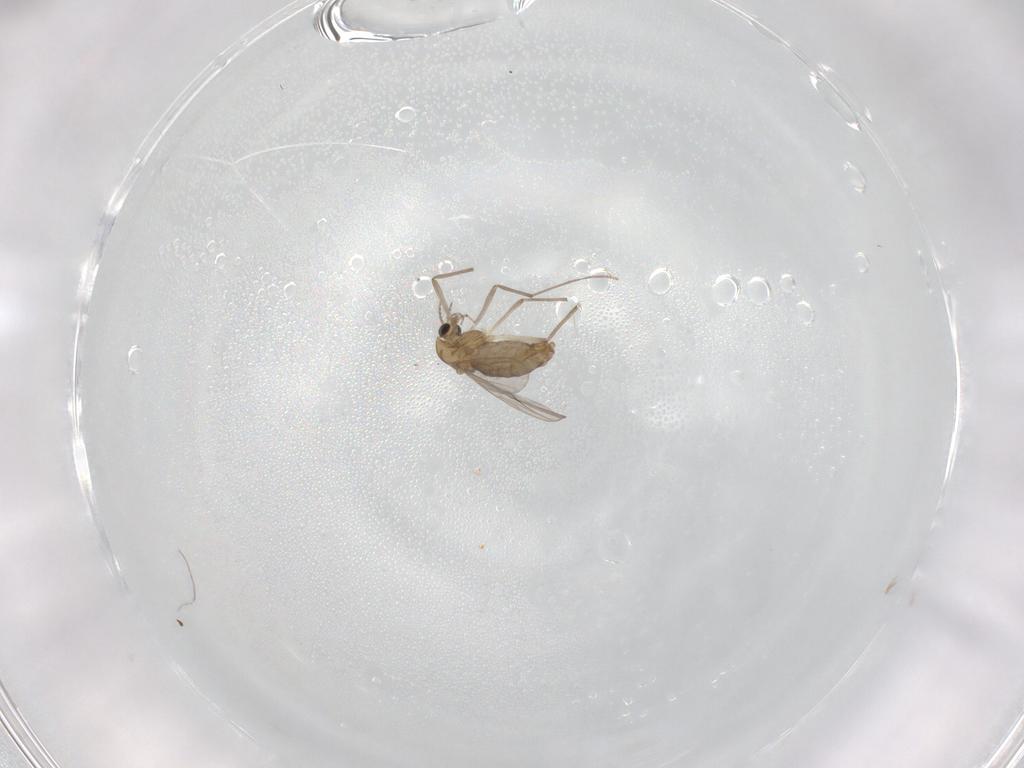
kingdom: Animalia
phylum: Arthropoda
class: Insecta
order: Diptera
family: Chironomidae
